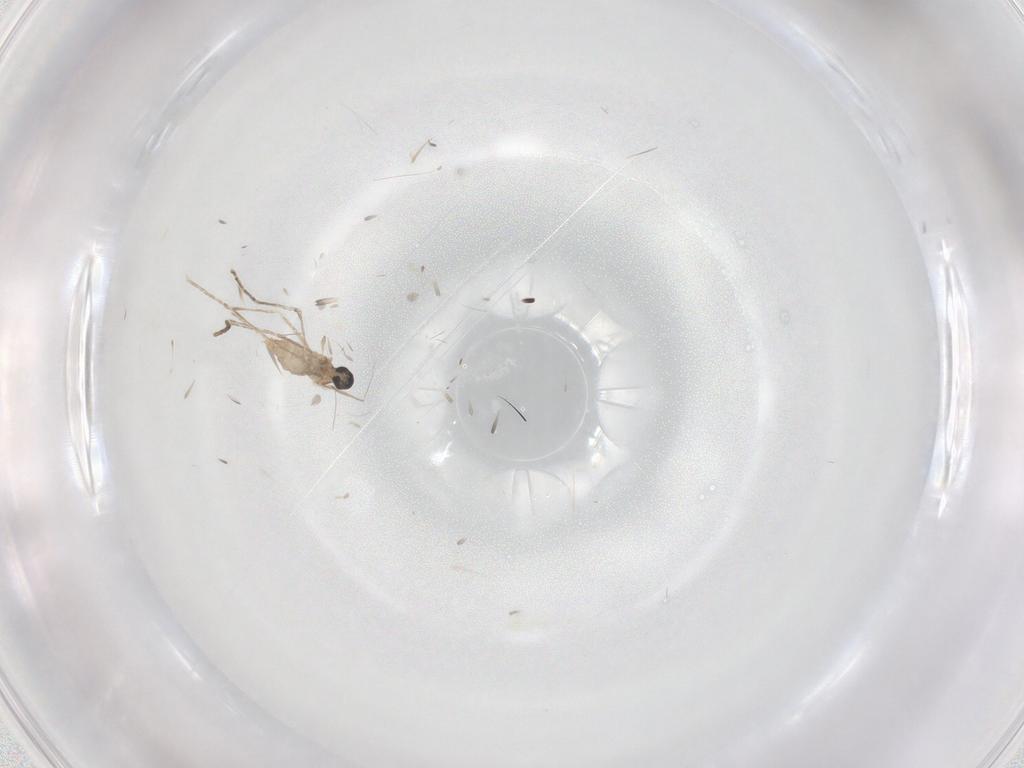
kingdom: Animalia
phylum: Arthropoda
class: Insecta
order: Diptera
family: Cecidomyiidae
